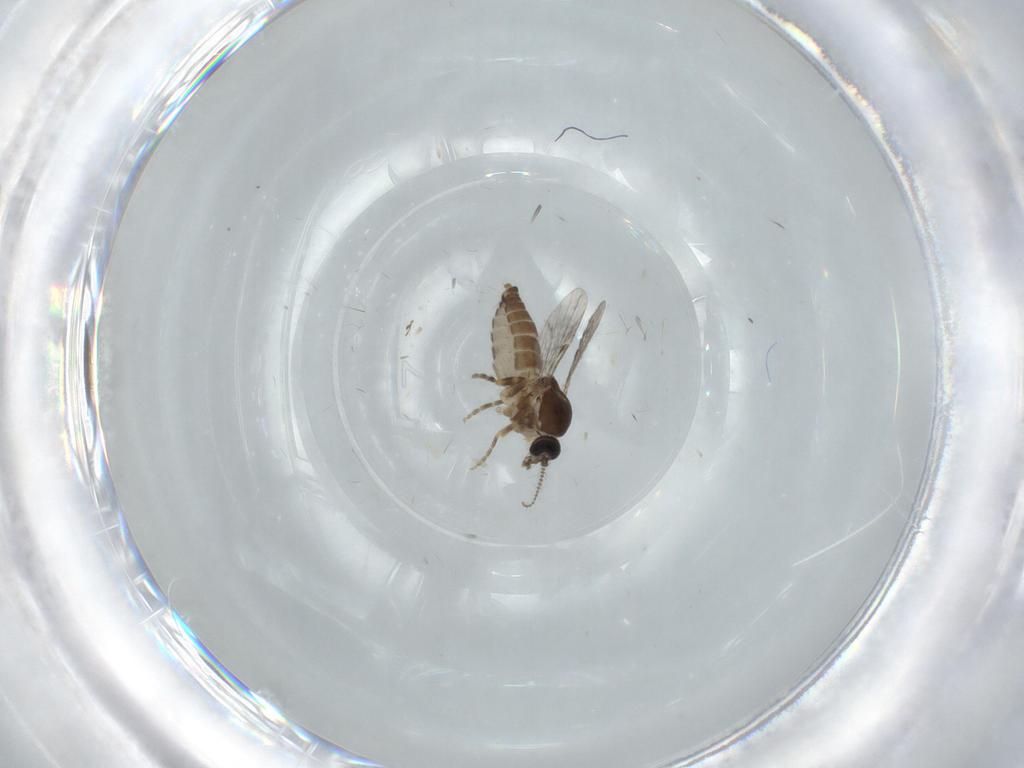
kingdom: Animalia
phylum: Arthropoda
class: Insecta
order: Diptera
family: Ceratopogonidae
